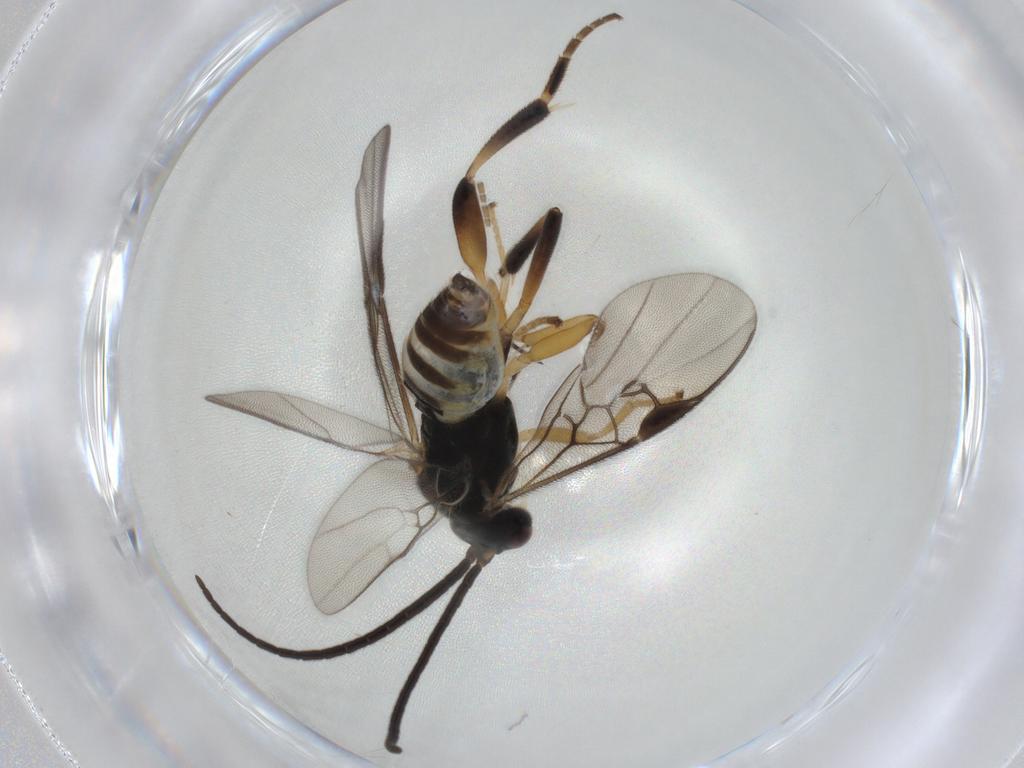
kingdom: Animalia
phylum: Arthropoda
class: Insecta
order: Hymenoptera
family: Braconidae
